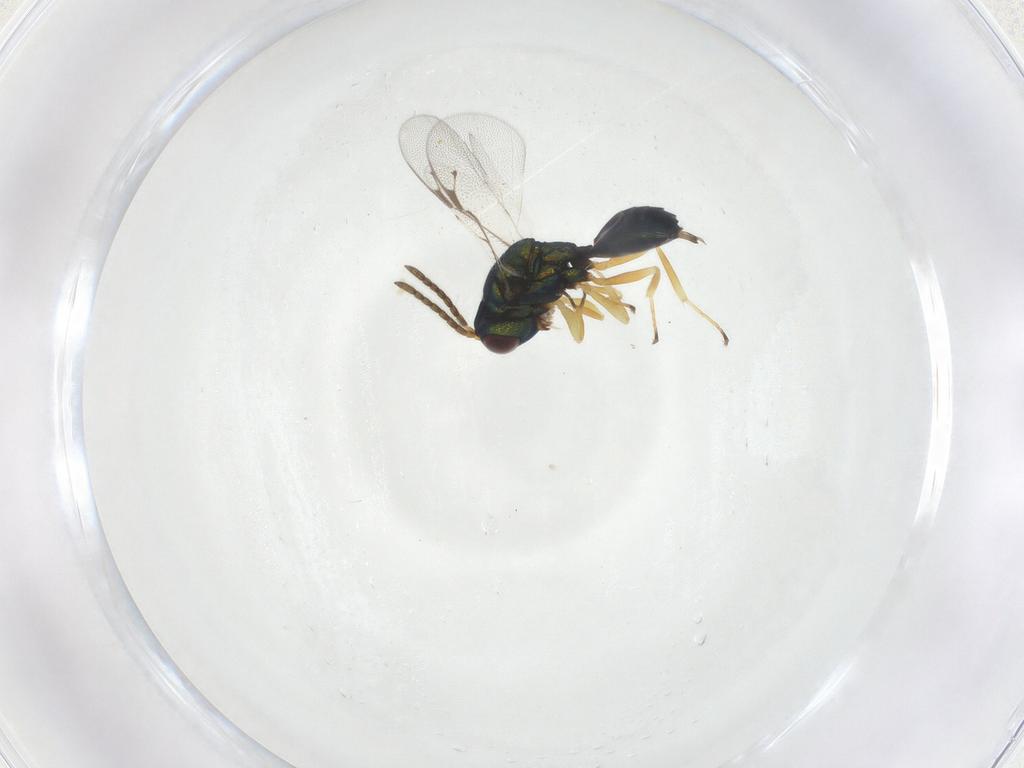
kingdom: Animalia
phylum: Arthropoda
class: Insecta
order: Hymenoptera
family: Pteromalidae
